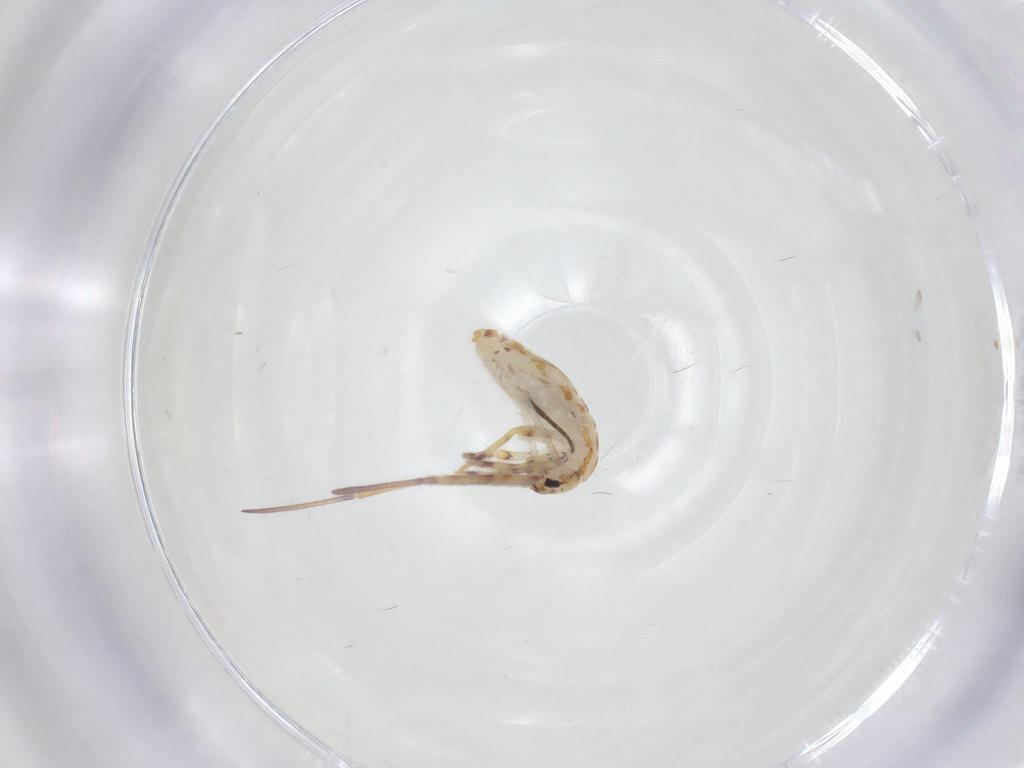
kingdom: Animalia
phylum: Arthropoda
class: Collembola
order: Entomobryomorpha
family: Entomobryidae
